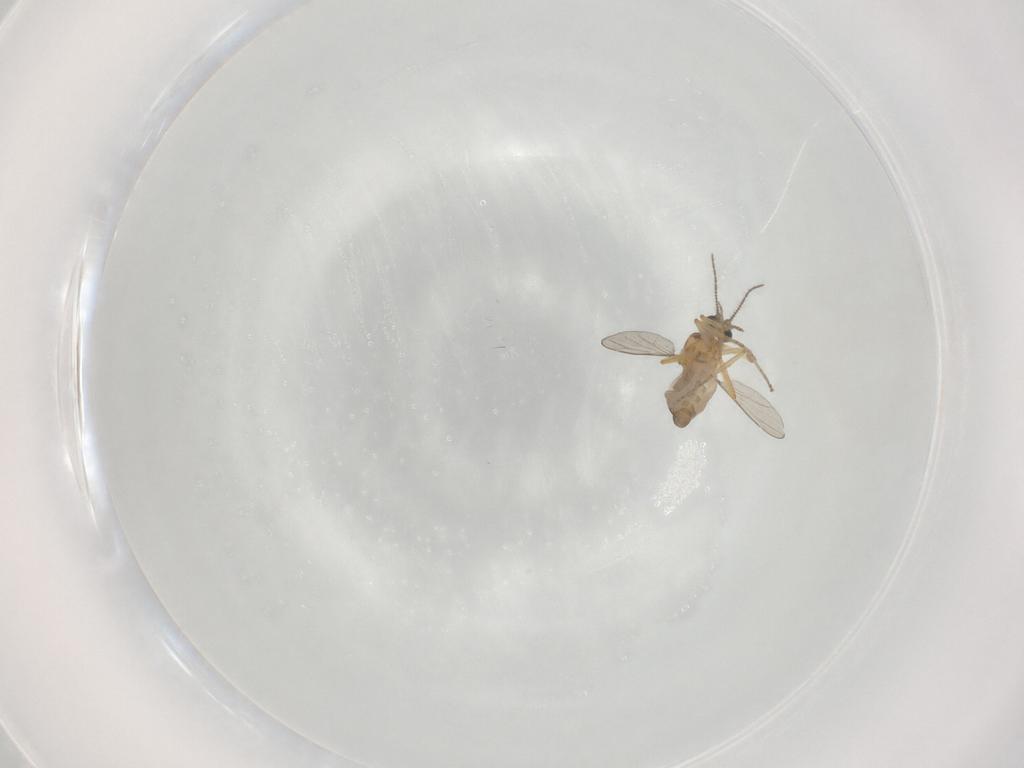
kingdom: Animalia
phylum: Arthropoda
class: Insecta
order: Diptera
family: Ceratopogonidae
